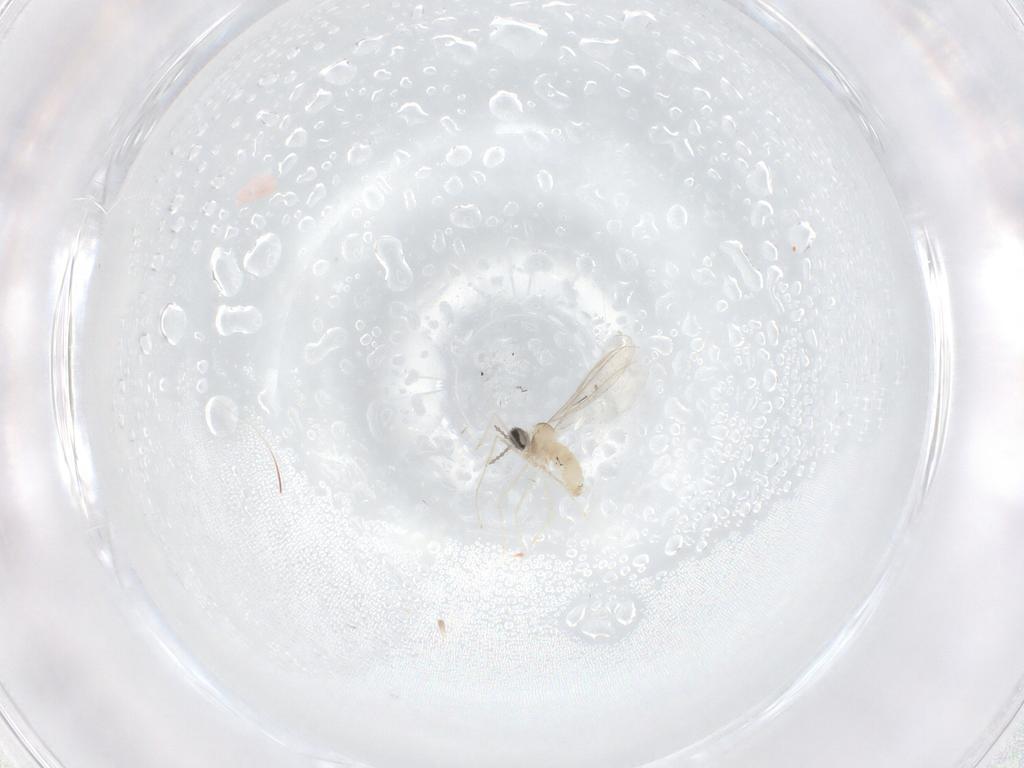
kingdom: Animalia
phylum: Arthropoda
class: Insecta
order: Diptera
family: Cecidomyiidae
